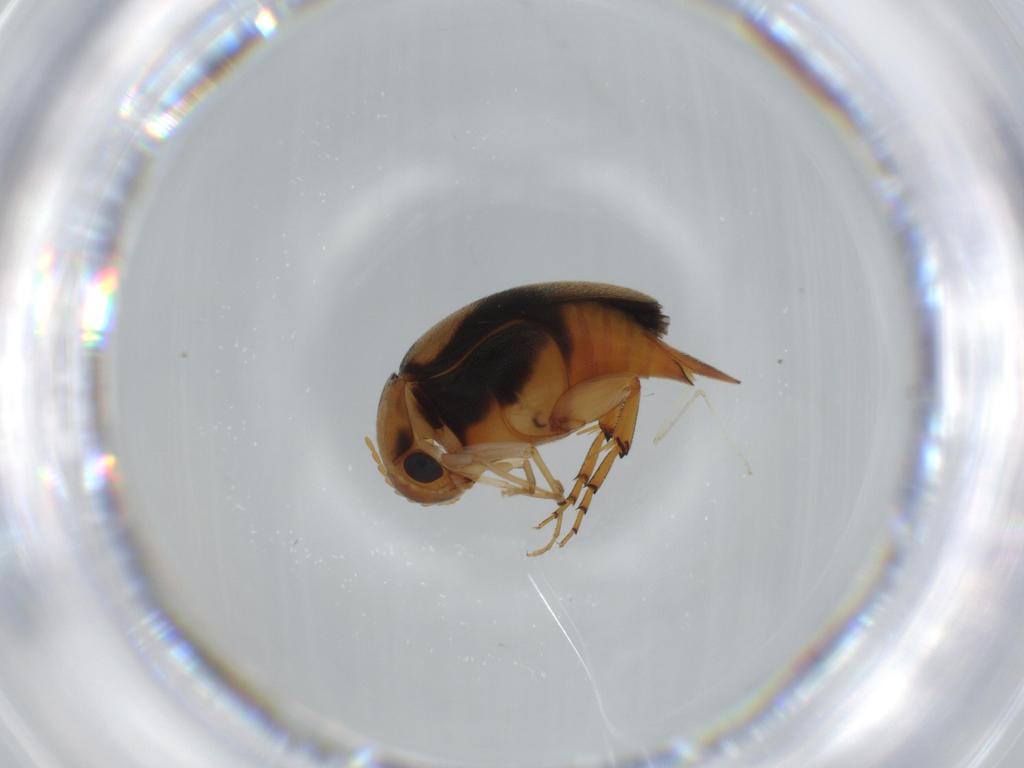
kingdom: Animalia
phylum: Arthropoda
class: Insecta
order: Coleoptera
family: Mordellidae
